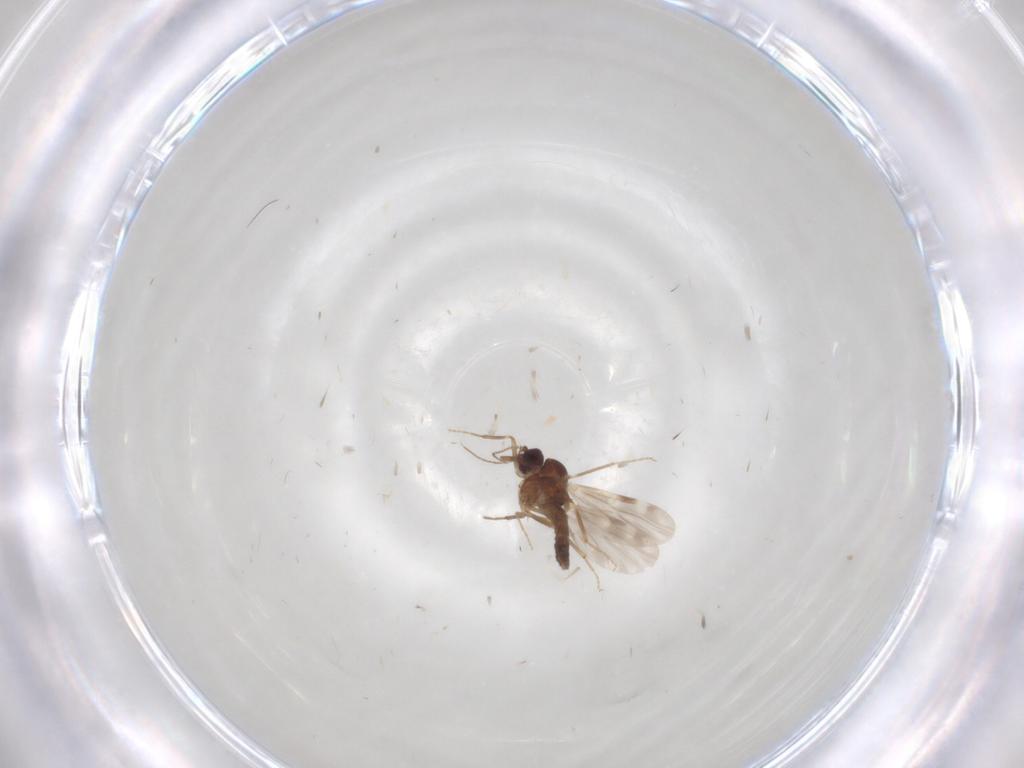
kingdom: Animalia
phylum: Arthropoda
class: Insecta
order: Diptera
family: Ceratopogonidae
